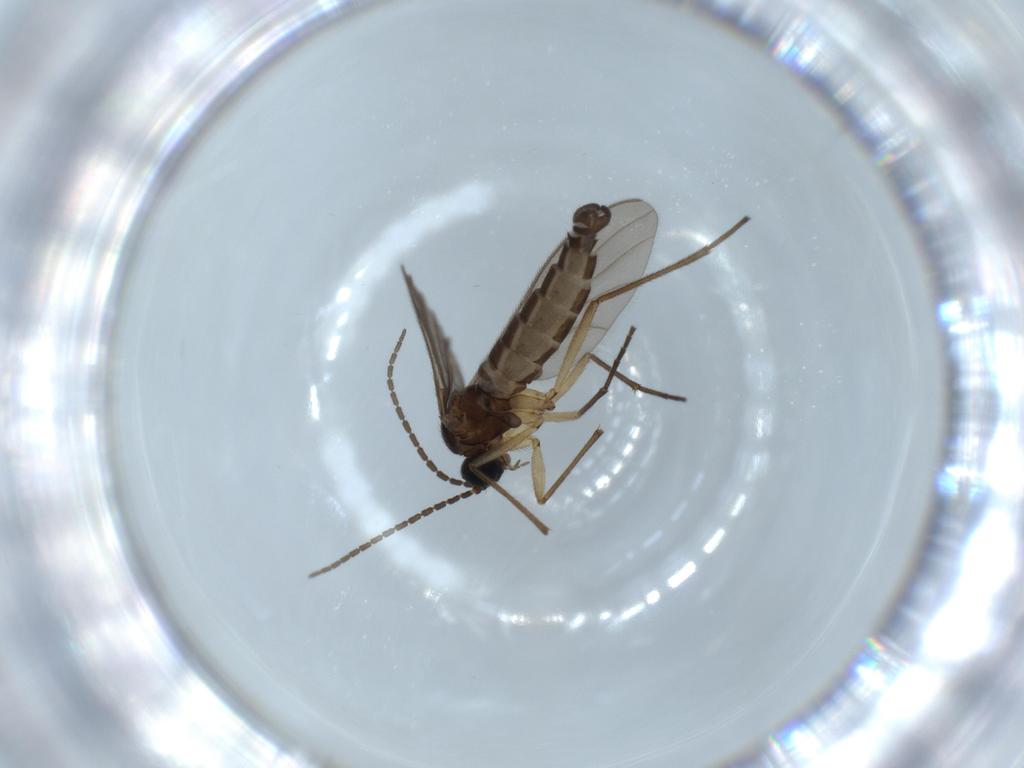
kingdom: Animalia
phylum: Arthropoda
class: Insecta
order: Diptera
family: Sciaridae
